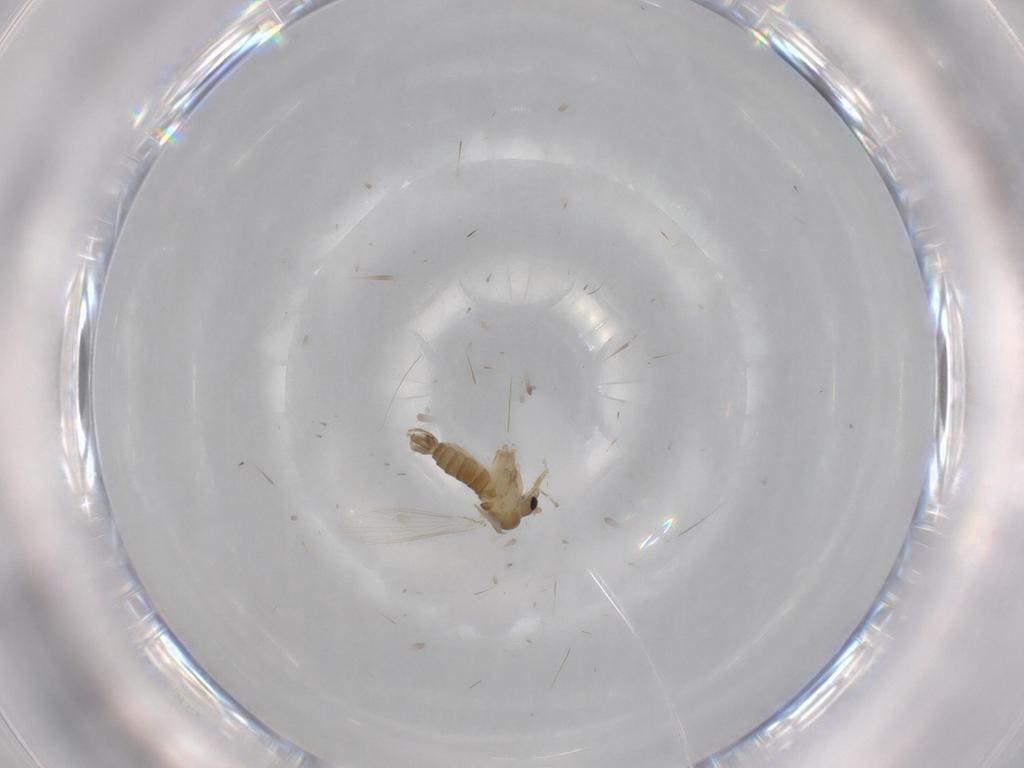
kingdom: Animalia
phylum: Arthropoda
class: Insecta
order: Diptera
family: Psychodidae
